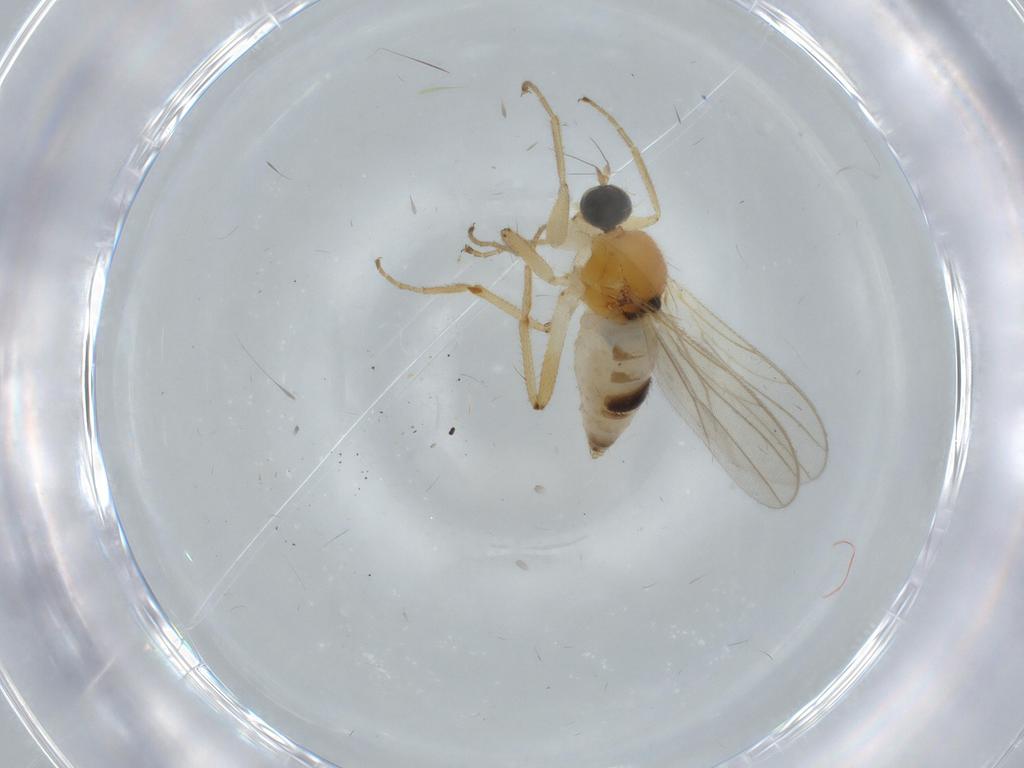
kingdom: Animalia
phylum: Arthropoda
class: Insecta
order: Diptera
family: Hybotidae
